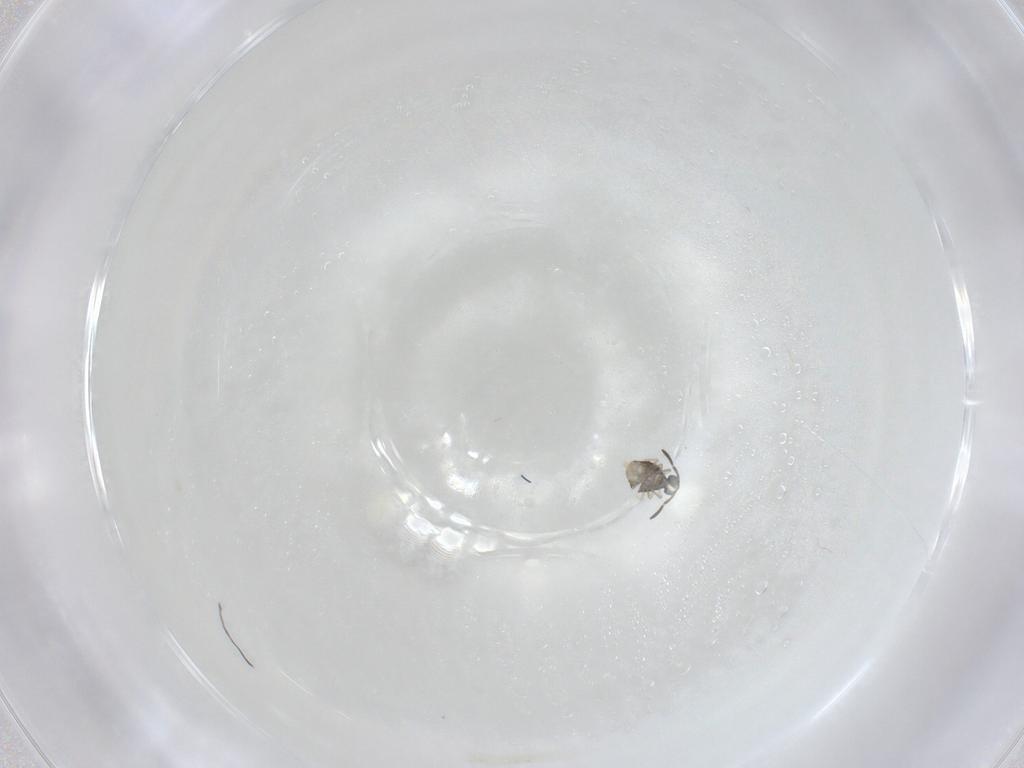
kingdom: Animalia
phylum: Arthropoda
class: Collembola
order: Symphypleona
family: Katiannidae
